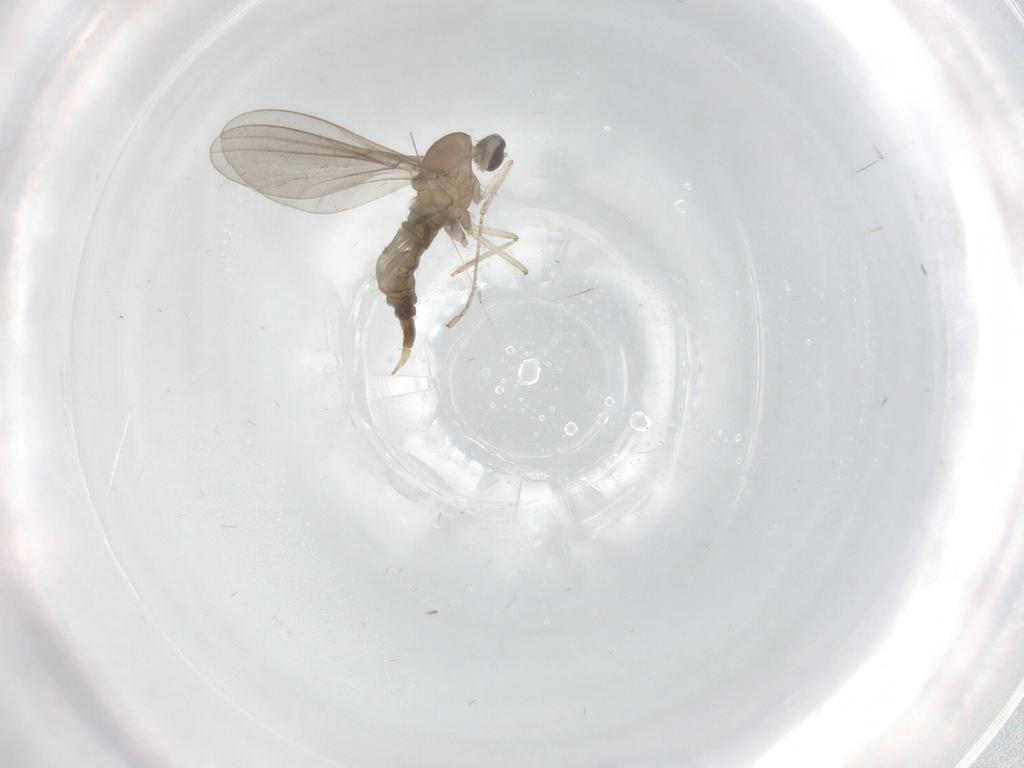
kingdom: Animalia
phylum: Arthropoda
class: Insecta
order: Diptera
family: Cecidomyiidae
